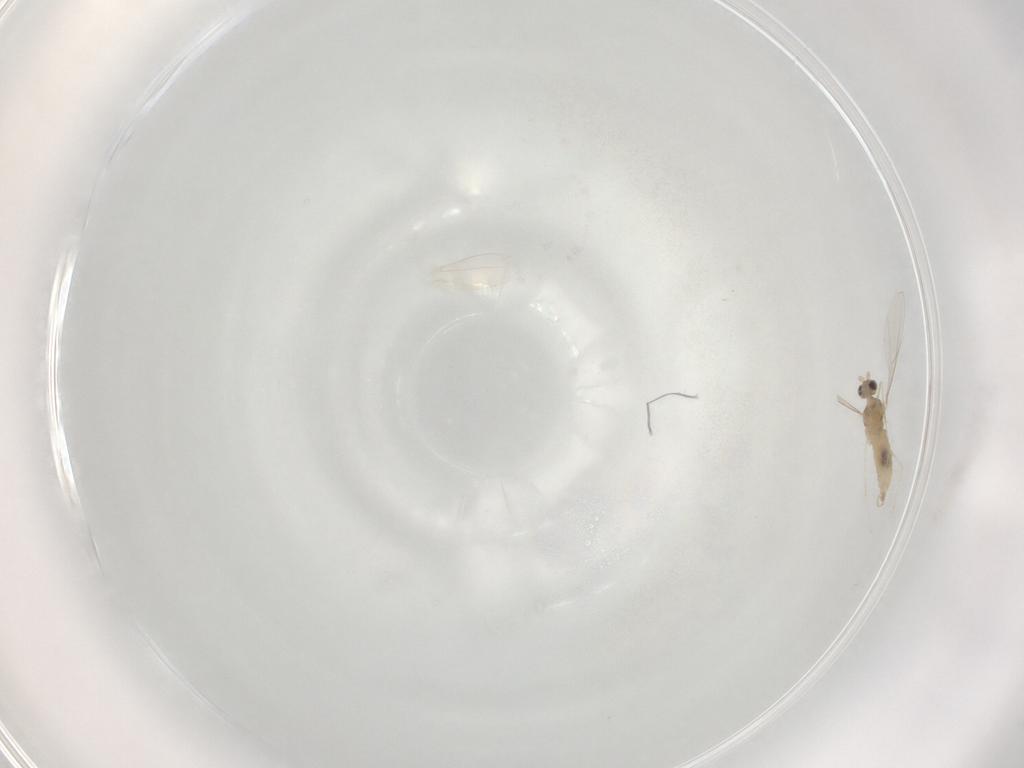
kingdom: Animalia
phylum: Arthropoda
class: Insecta
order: Diptera
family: Cecidomyiidae
